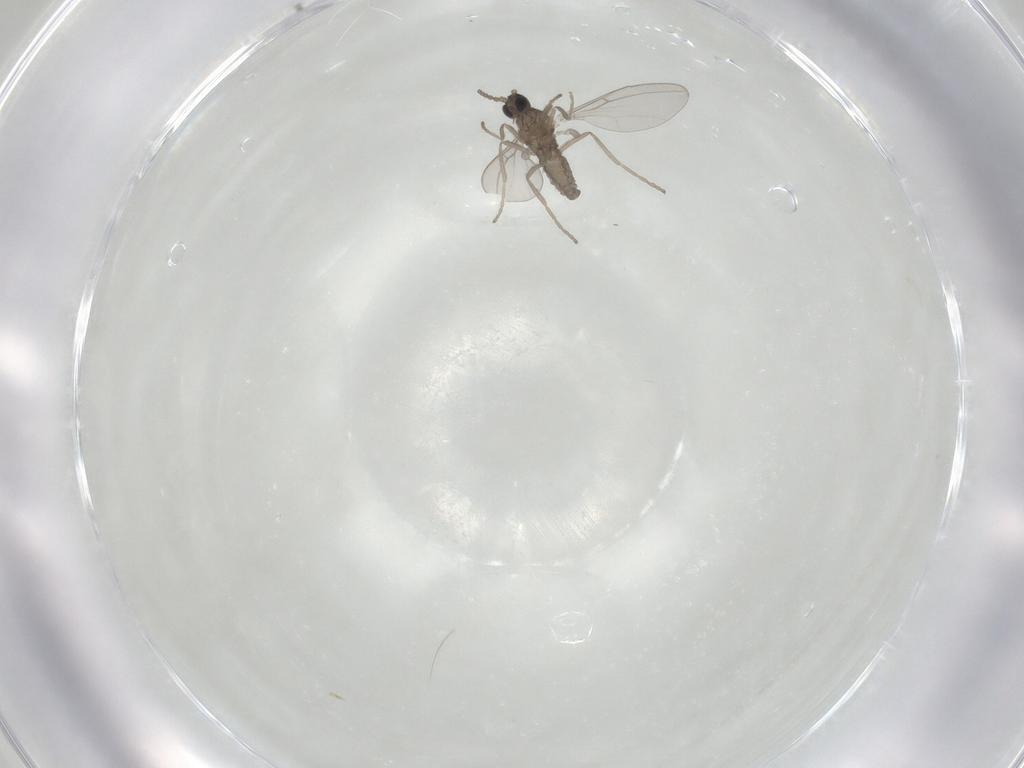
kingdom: Animalia
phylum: Arthropoda
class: Insecta
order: Diptera
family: Cecidomyiidae
